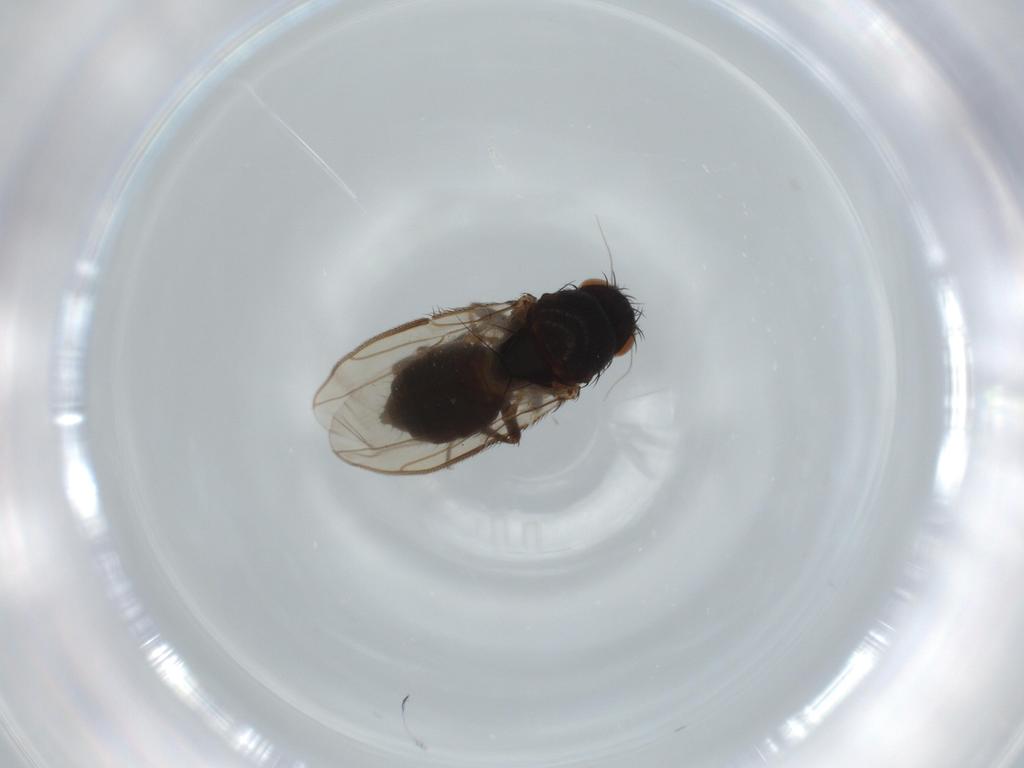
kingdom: Animalia
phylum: Arthropoda
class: Insecta
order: Diptera
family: Sphaeroceridae
